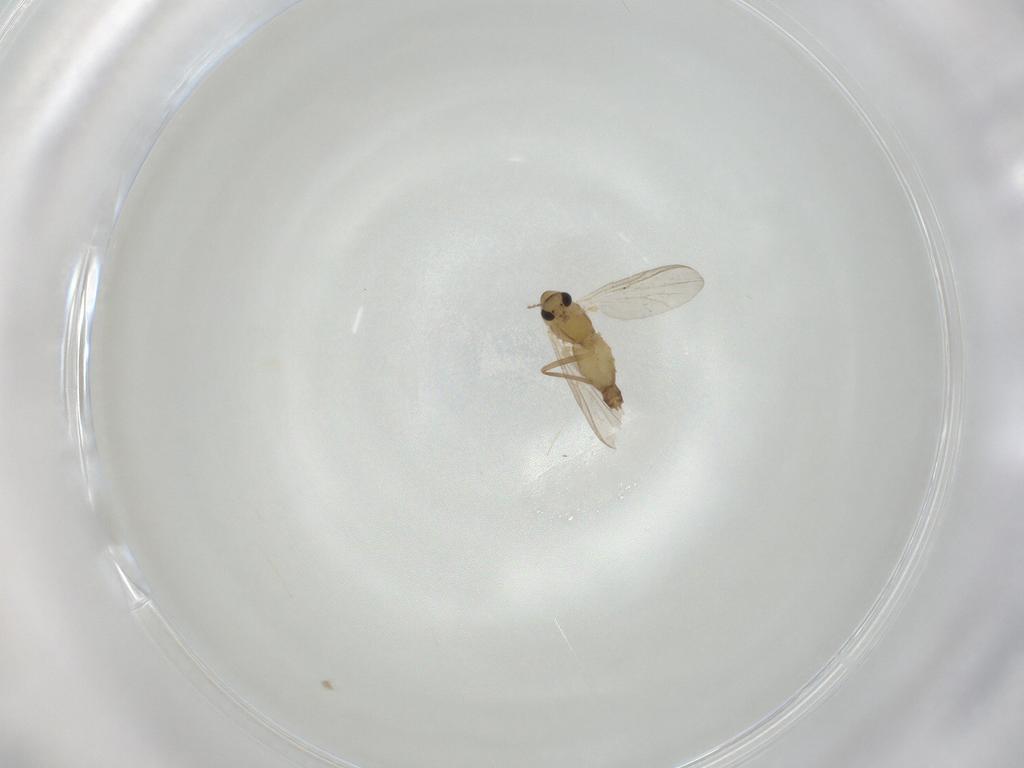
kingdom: Animalia
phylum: Arthropoda
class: Insecta
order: Diptera
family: Chironomidae
